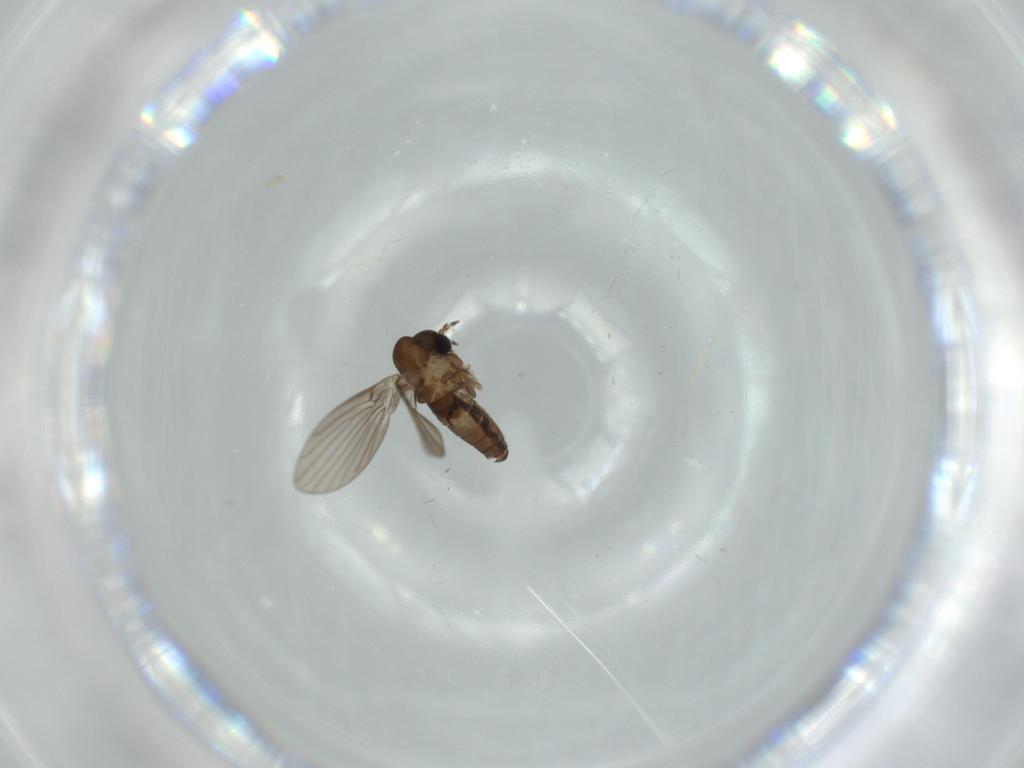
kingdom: Animalia
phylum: Arthropoda
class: Insecta
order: Diptera
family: Psychodidae
